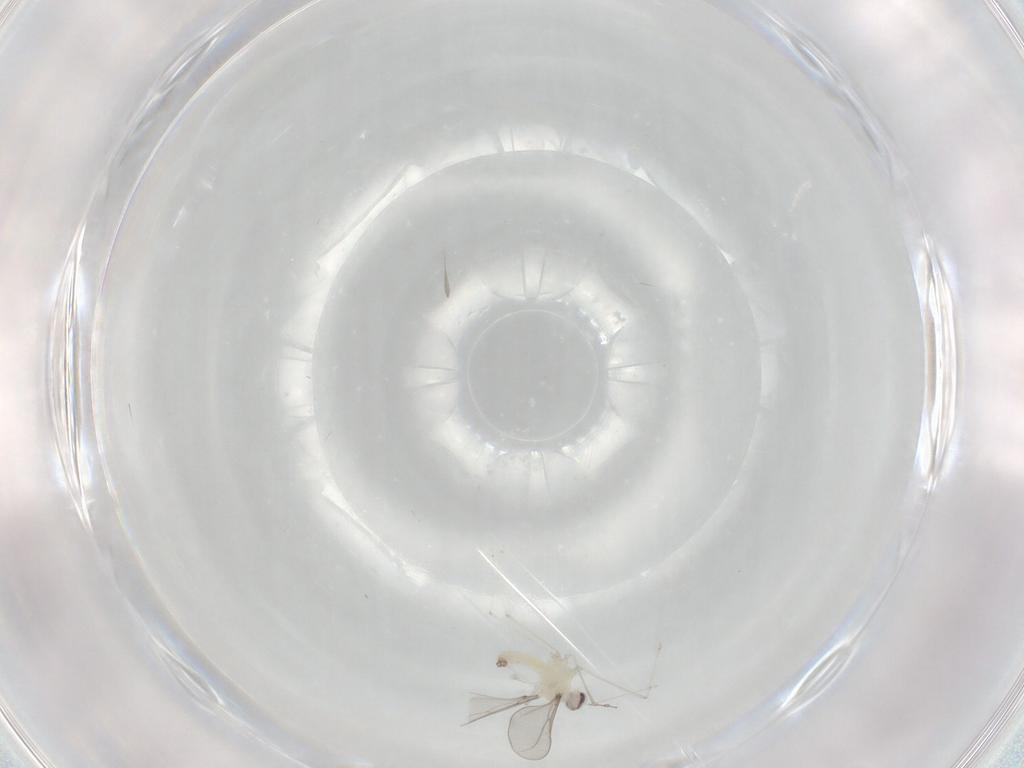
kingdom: Animalia
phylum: Arthropoda
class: Insecta
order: Diptera
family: Cecidomyiidae
